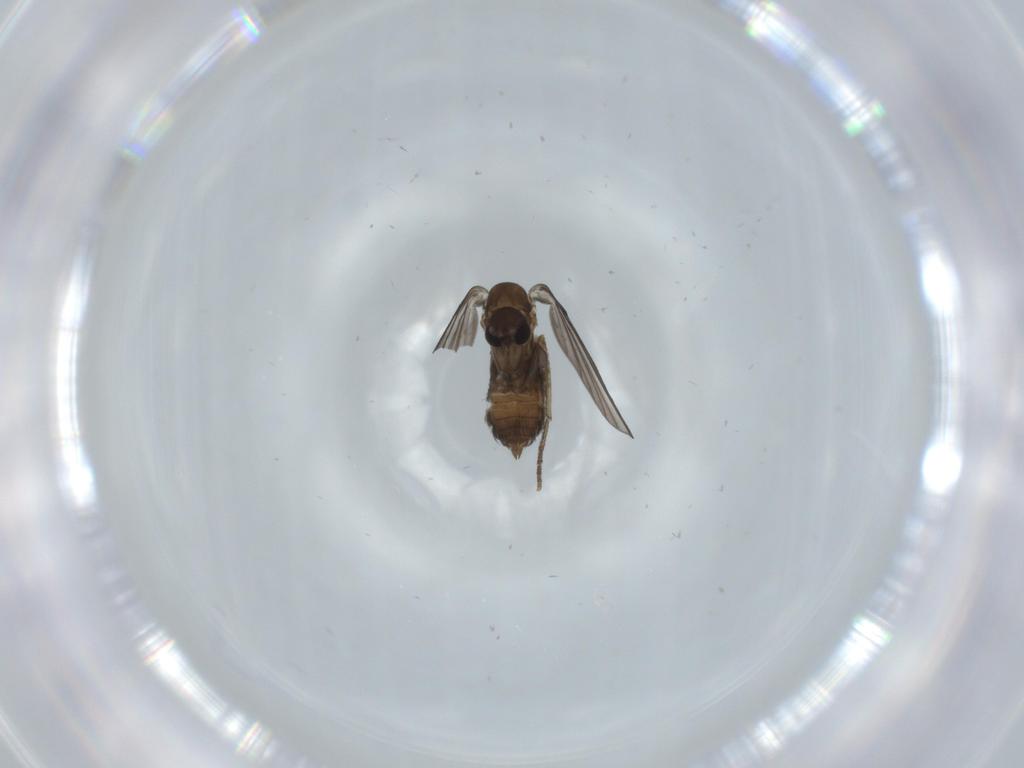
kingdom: Animalia
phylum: Arthropoda
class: Insecta
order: Diptera
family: Psychodidae
